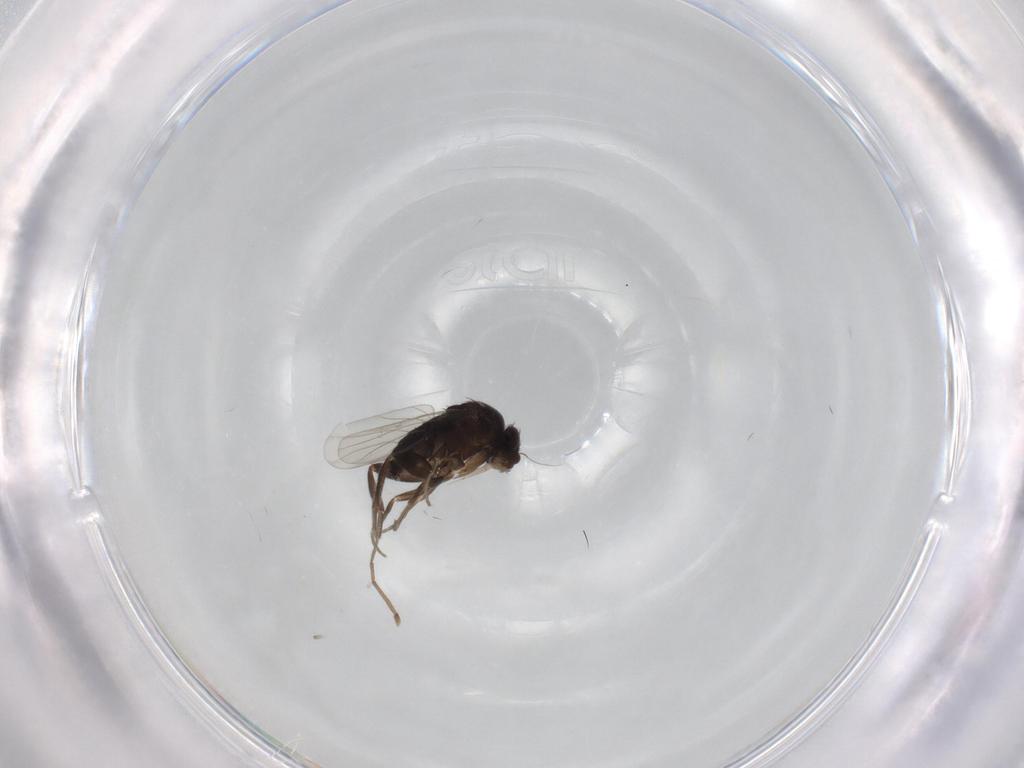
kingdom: Animalia
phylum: Arthropoda
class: Insecta
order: Diptera
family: Phoridae
